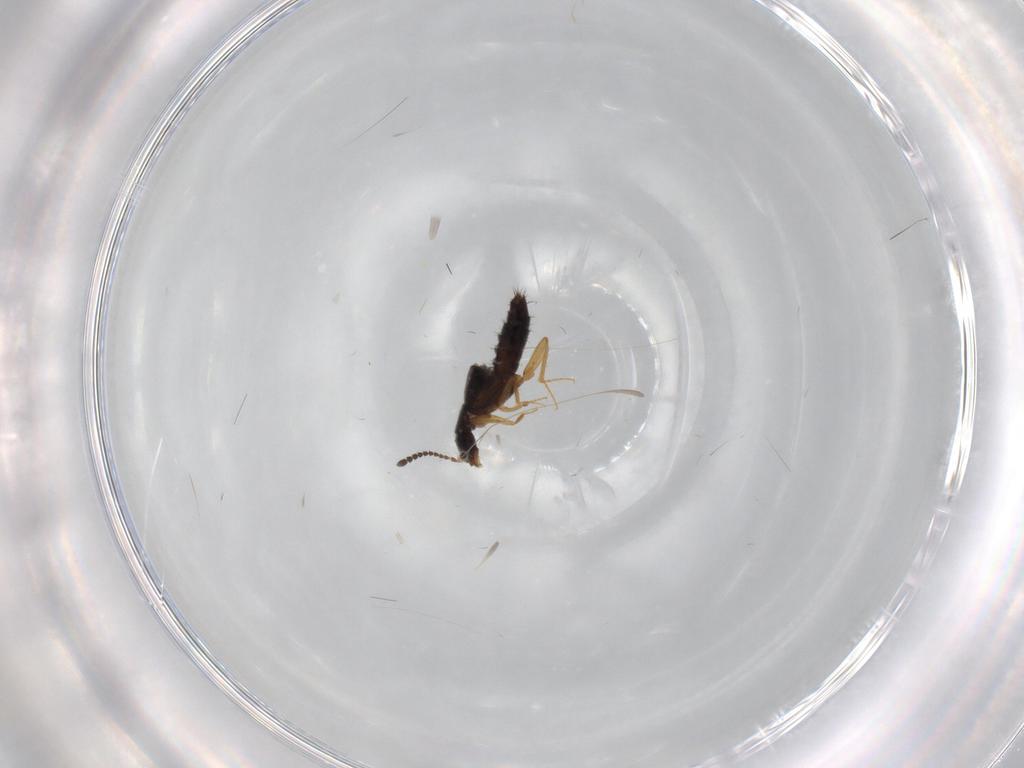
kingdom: Animalia
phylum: Arthropoda
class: Insecta
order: Coleoptera
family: Staphylinidae
